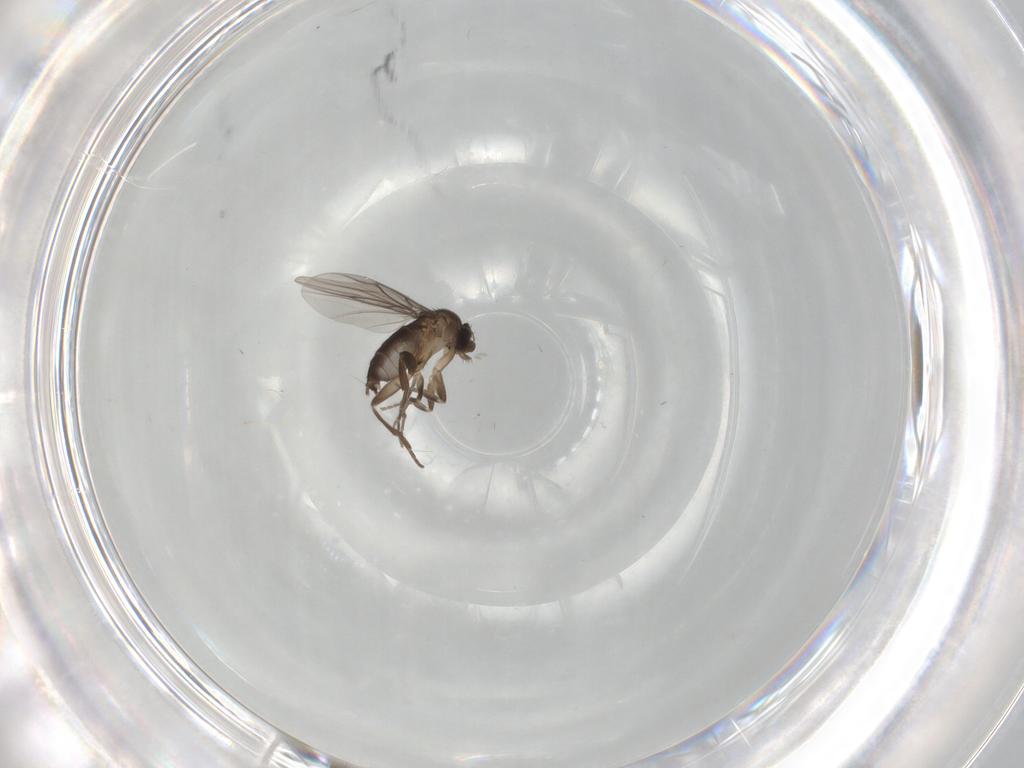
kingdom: Animalia
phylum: Arthropoda
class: Insecta
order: Diptera
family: Cecidomyiidae
